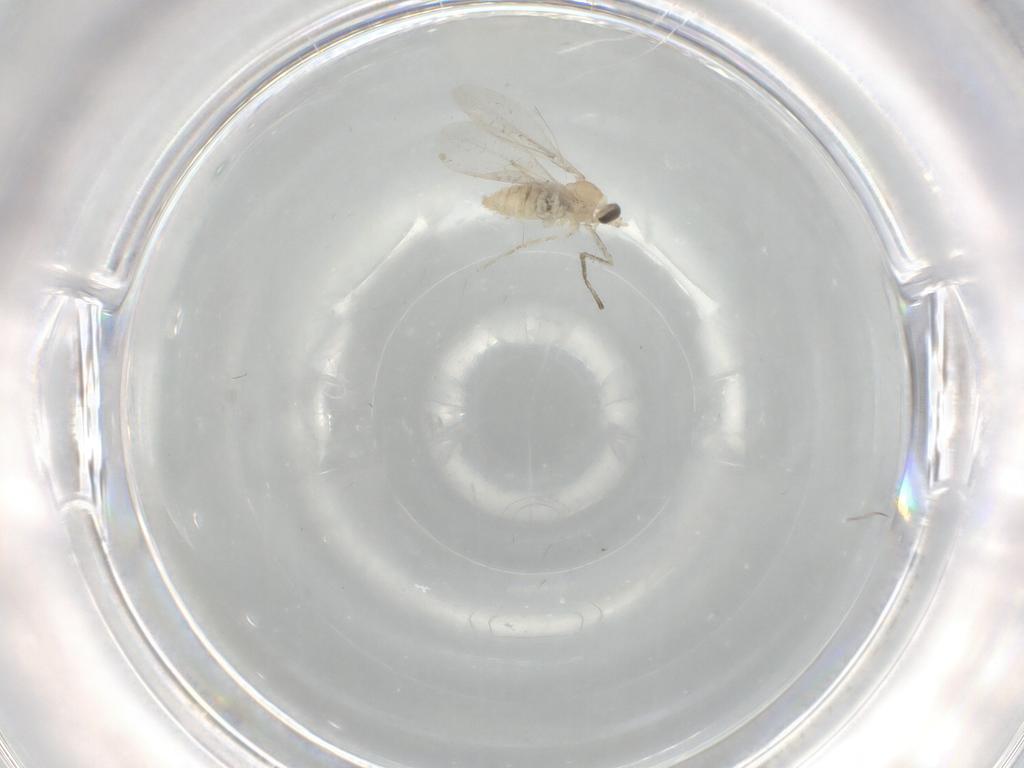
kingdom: Animalia
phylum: Arthropoda
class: Insecta
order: Diptera
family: Cecidomyiidae
